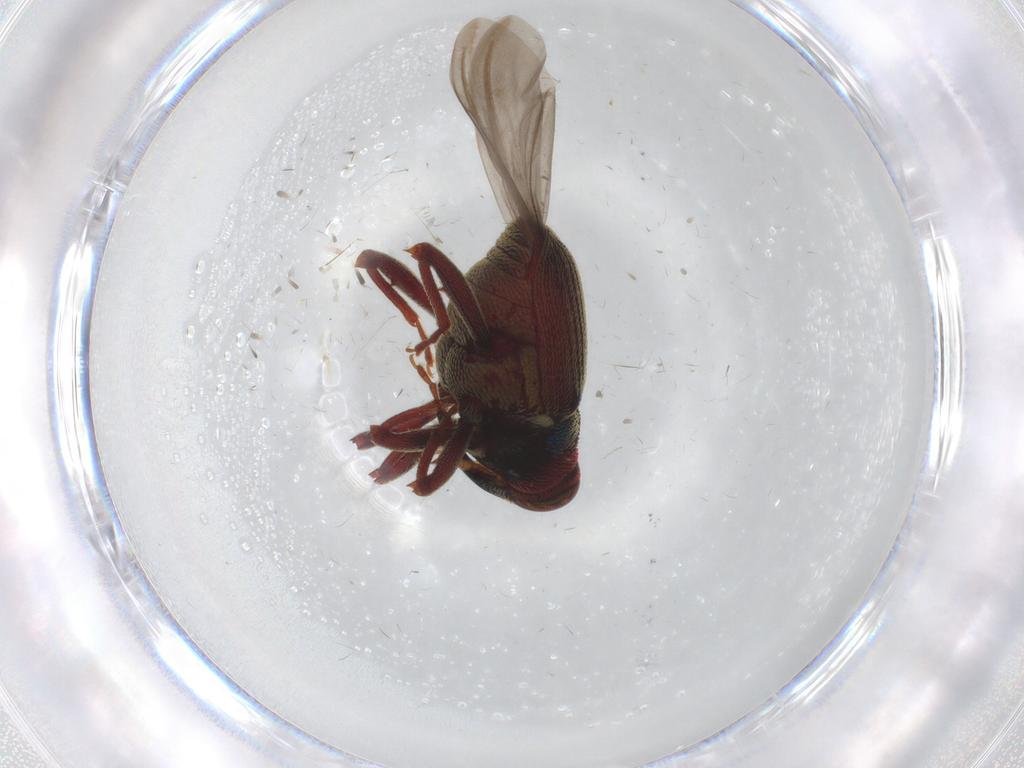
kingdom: Animalia
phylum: Arthropoda
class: Insecta
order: Coleoptera
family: Curculionidae
